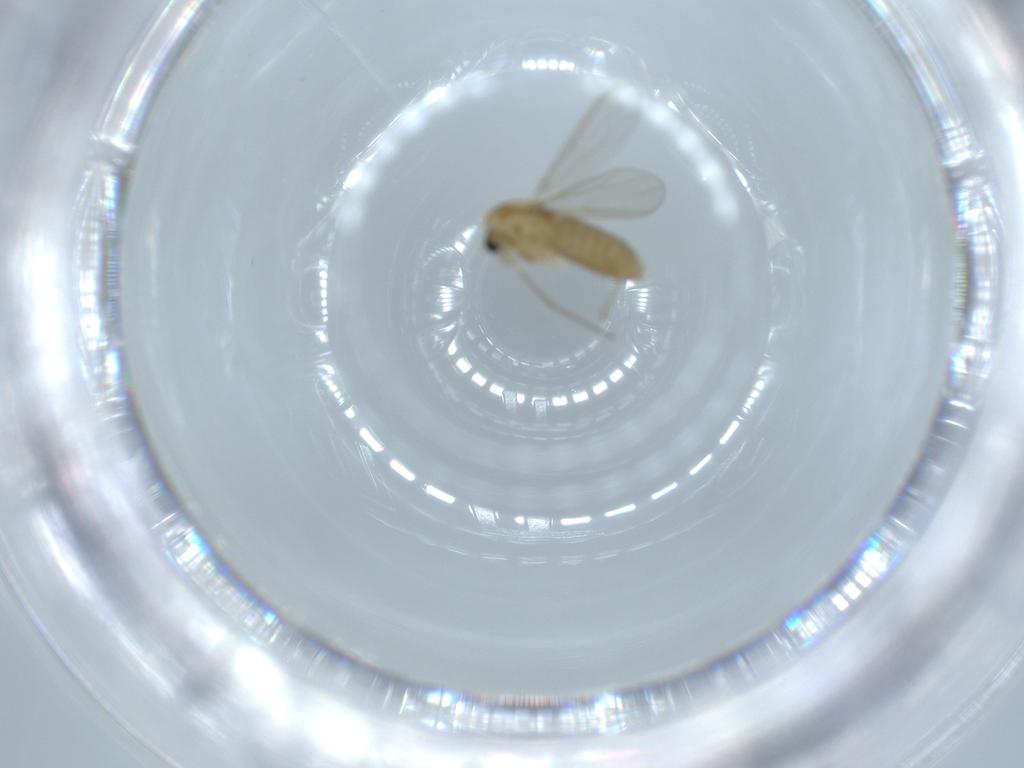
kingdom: Animalia
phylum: Arthropoda
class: Insecta
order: Diptera
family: Chironomidae
